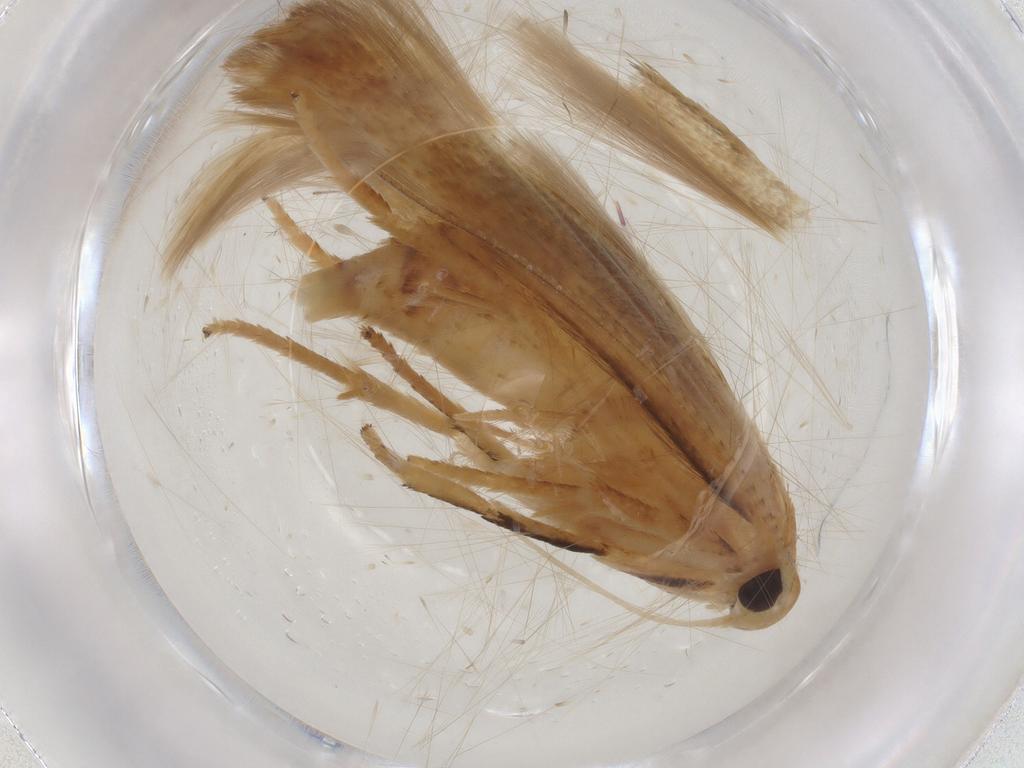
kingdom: Animalia
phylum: Arthropoda
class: Insecta
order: Lepidoptera
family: Stathmopodidae
